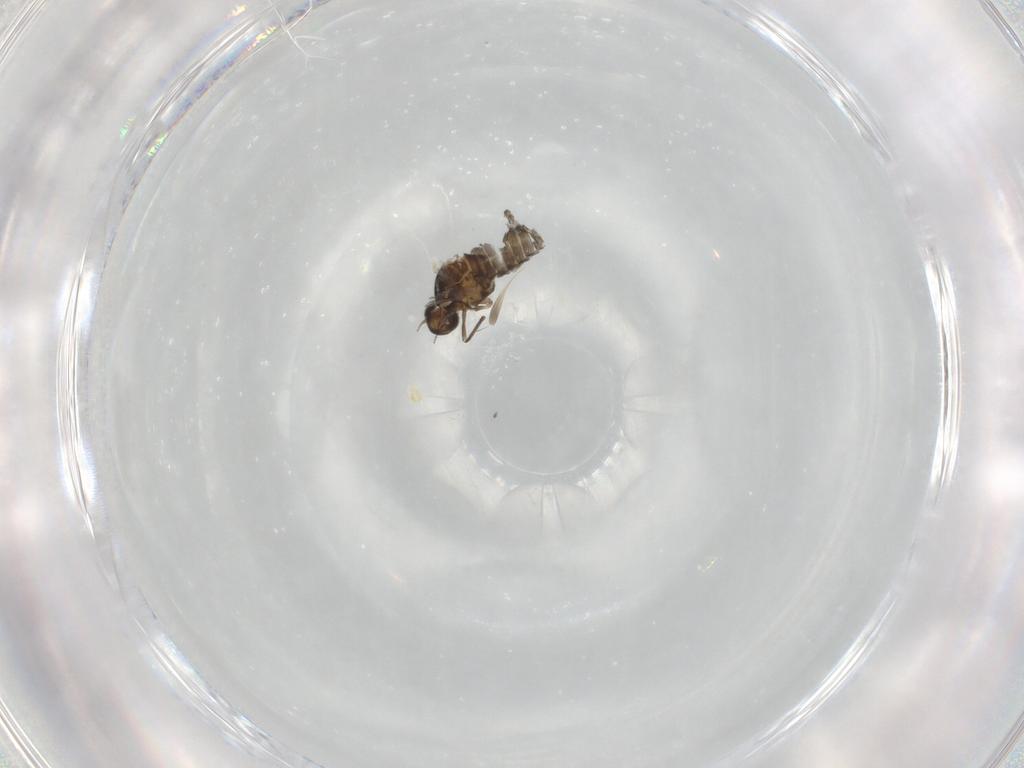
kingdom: Animalia
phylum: Arthropoda
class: Insecta
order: Diptera
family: Cecidomyiidae
